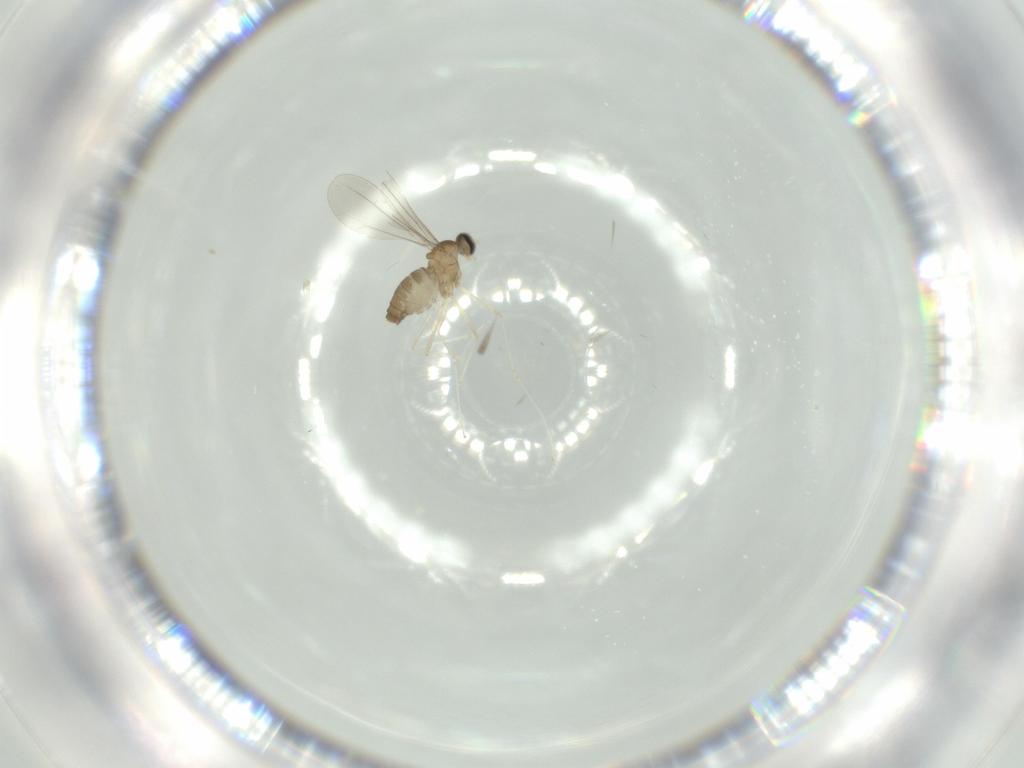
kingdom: Animalia
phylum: Arthropoda
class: Insecta
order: Diptera
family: Cecidomyiidae
